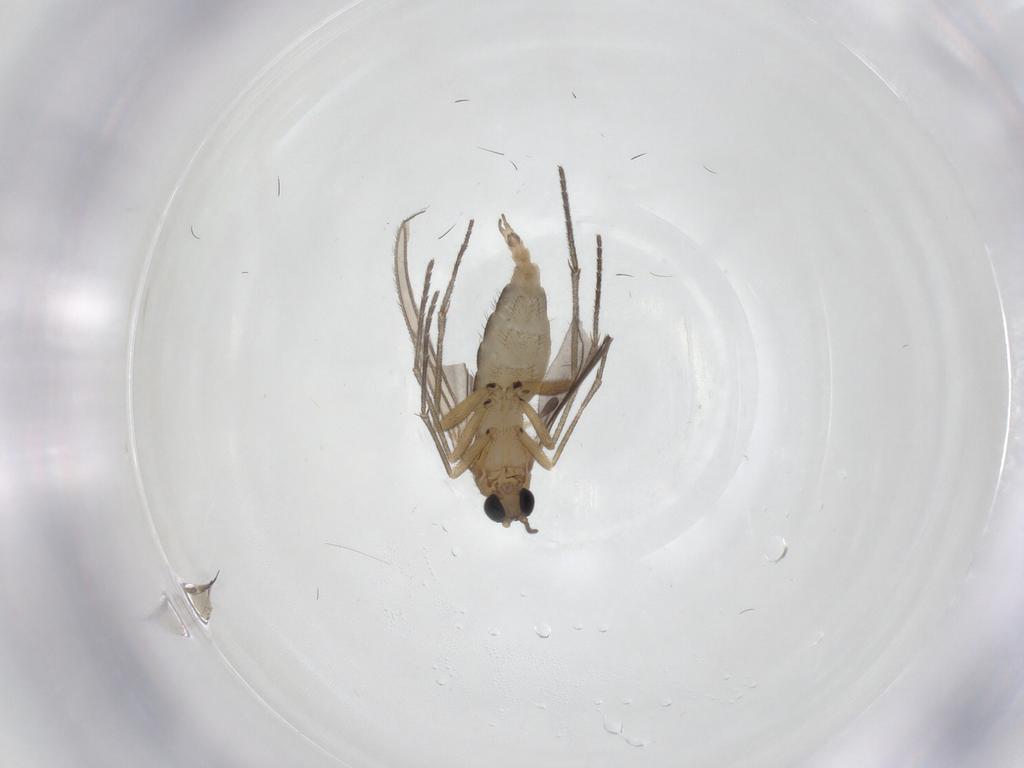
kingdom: Animalia
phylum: Arthropoda
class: Insecta
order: Diptera
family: Sciaridae
